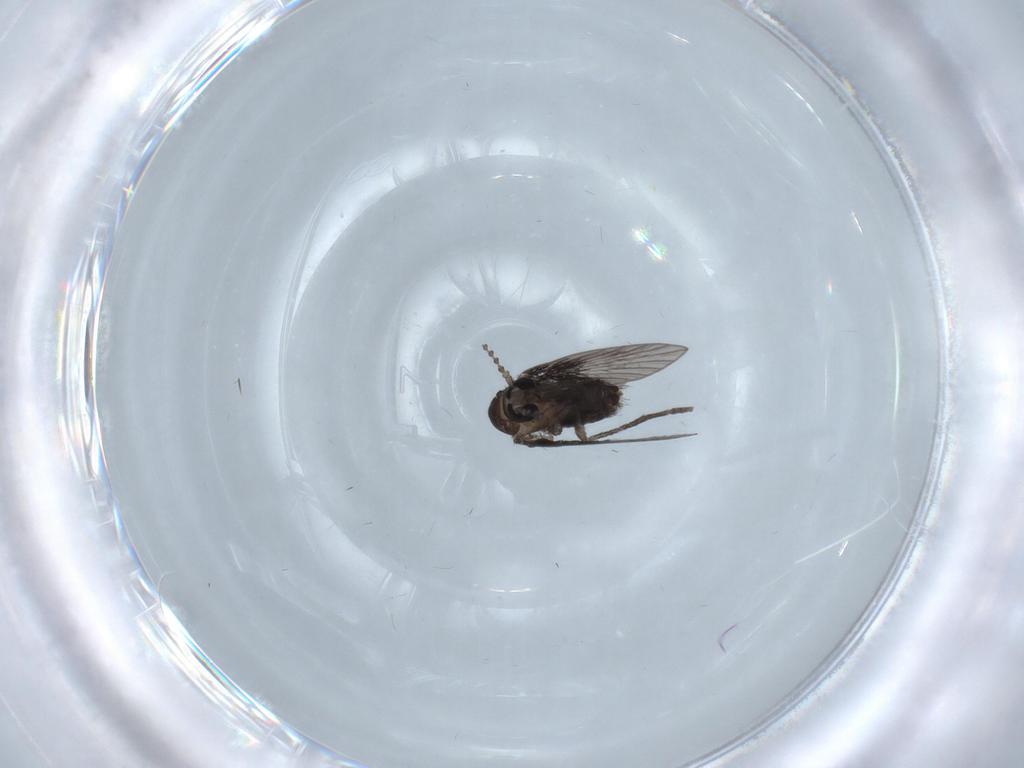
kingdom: Animalia
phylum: Arthropoda
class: Insecta
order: Diptera
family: Psychodidae
